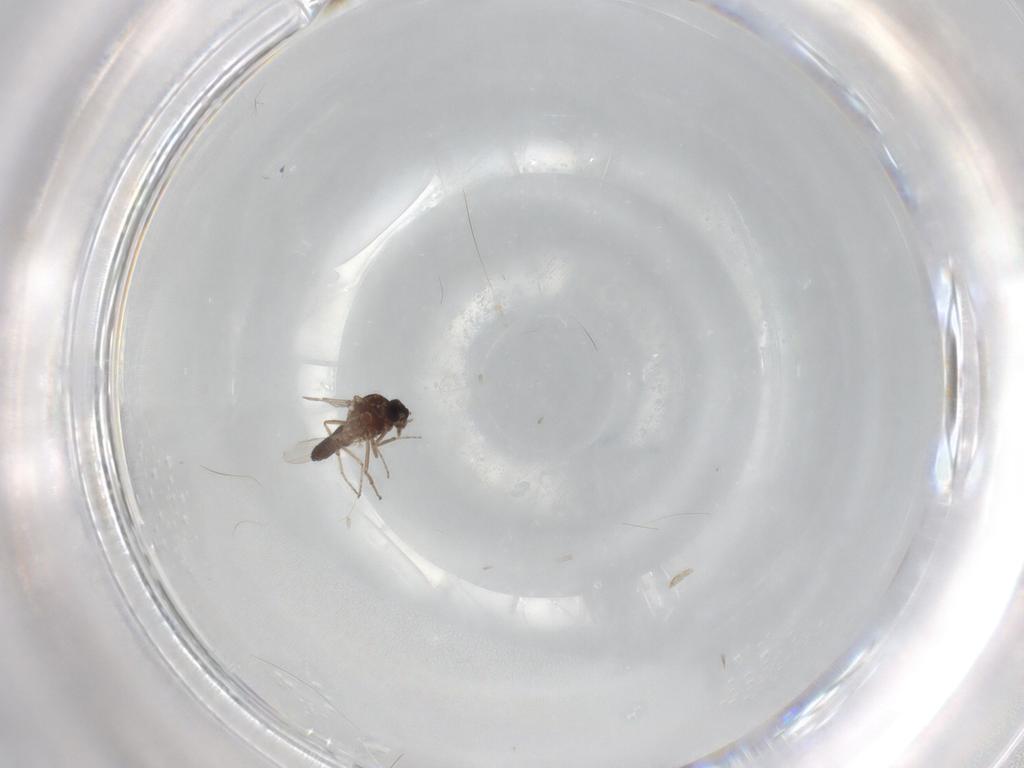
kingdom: Animalia
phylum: Arthropoda
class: Insecta
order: Diptera
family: Ceratopogonidae
